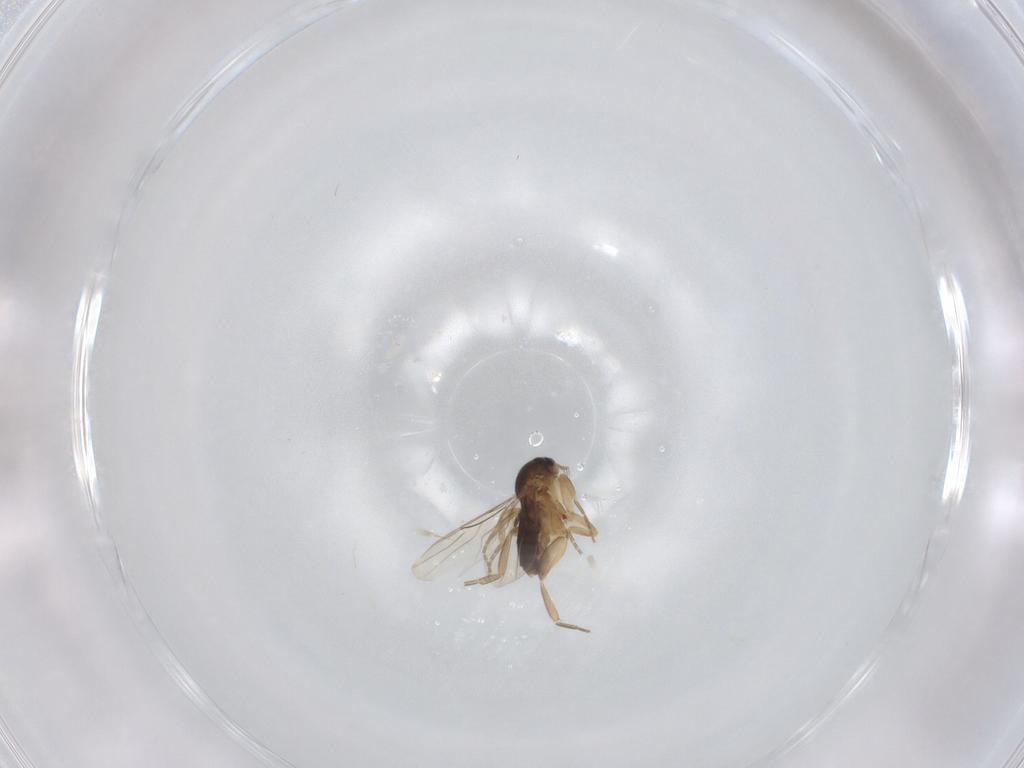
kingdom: Animalia
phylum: Arthropoda
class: Insecta
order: Diptera
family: Phoridae
